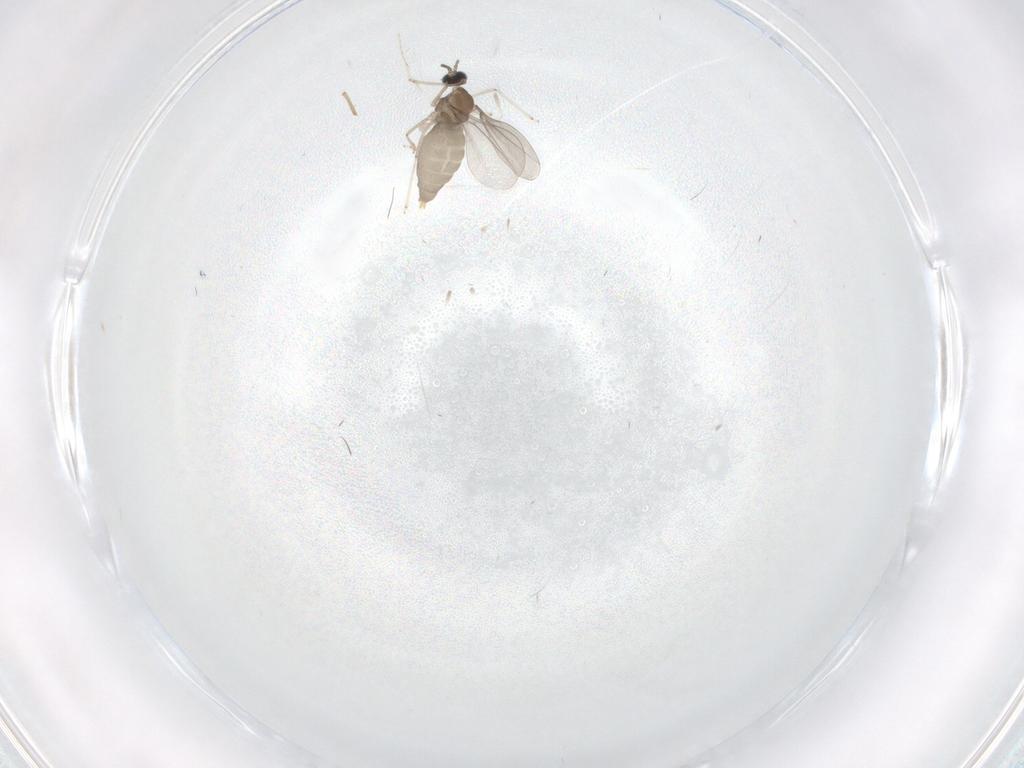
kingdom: Animalia
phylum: Arthropoda
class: Insecta
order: Diptera
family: Cecidomyiidae
